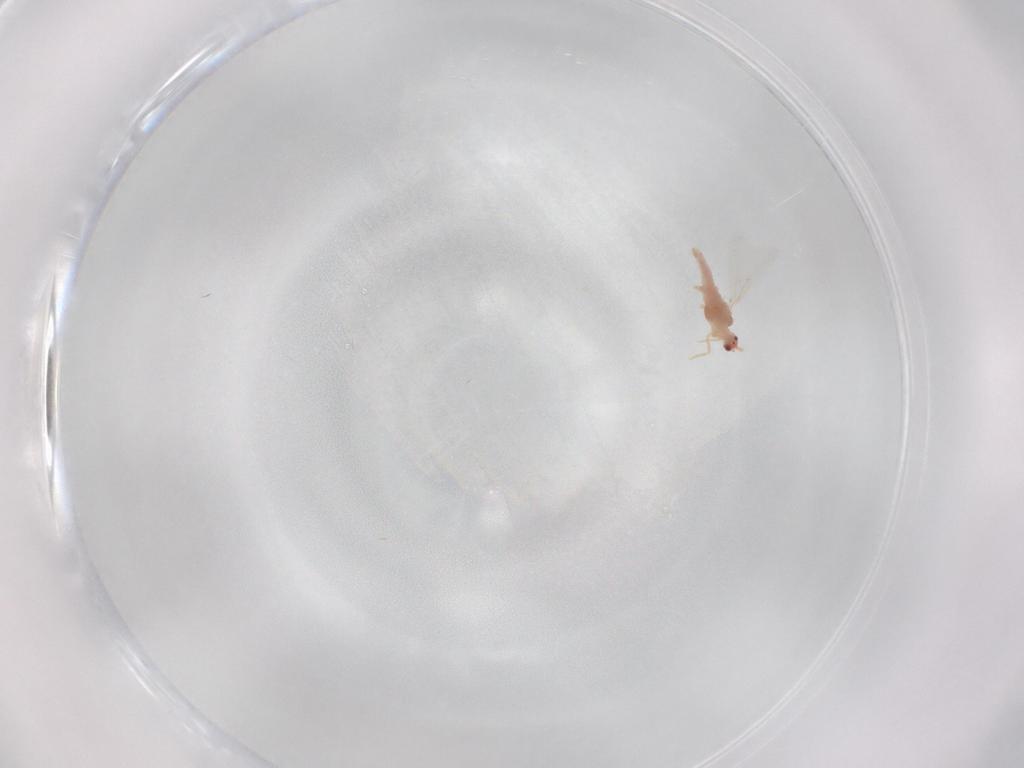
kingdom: Animalia
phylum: Arthropoda
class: Insecta
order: Hemiptera
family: Pseudococcidae
